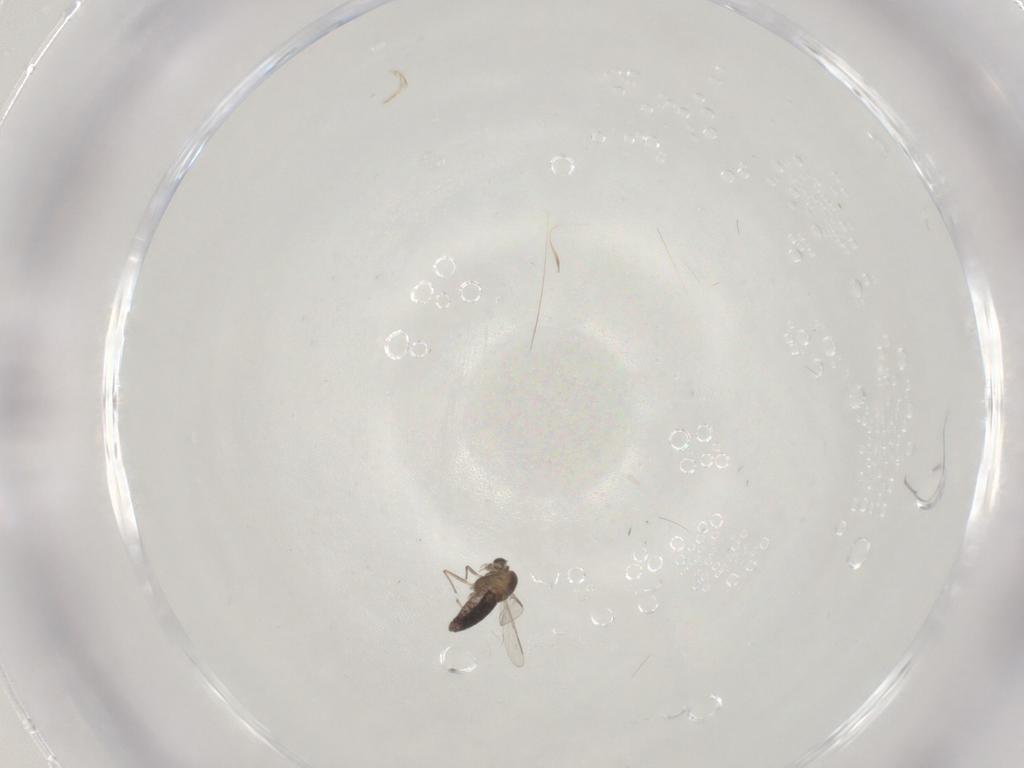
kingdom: Animalia
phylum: Arthropoda
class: Insecta
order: Diptera
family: Chironomidae
